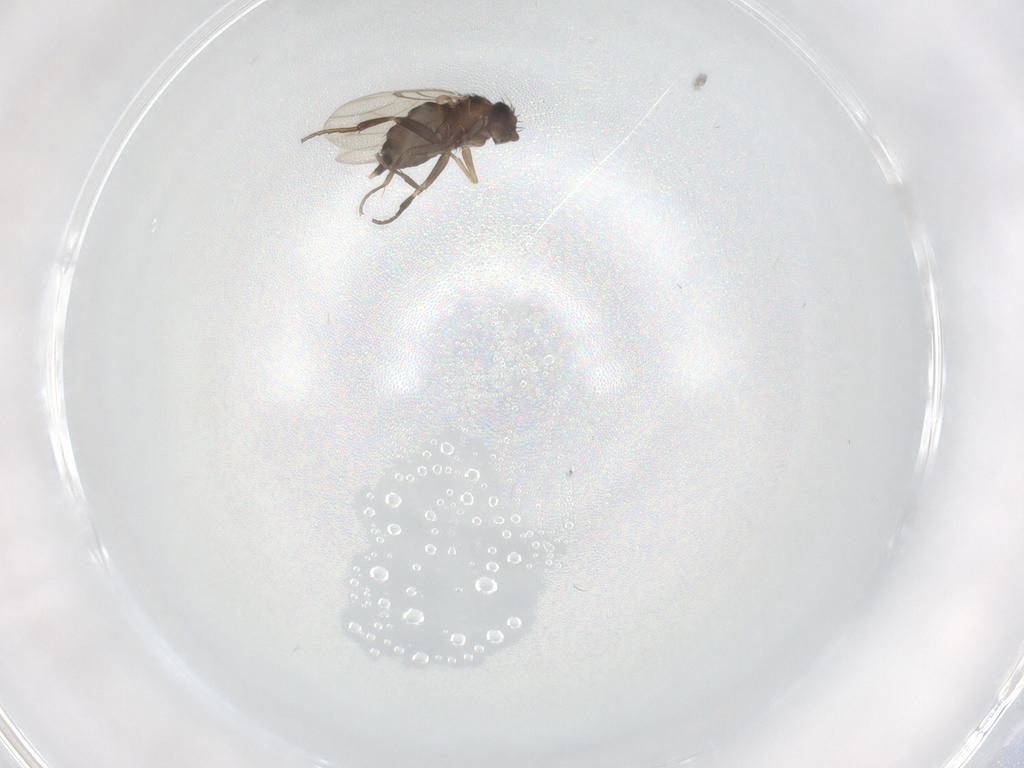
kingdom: Animalia
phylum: Arthropoda
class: Insecta
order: Diptera
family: Phoridae
